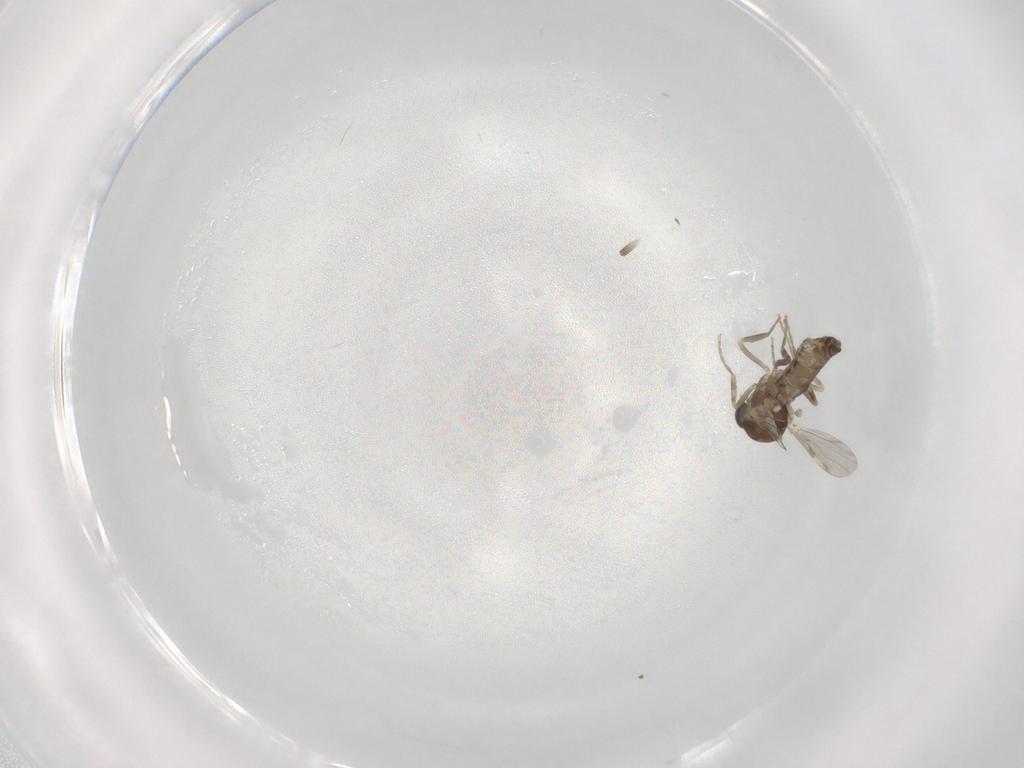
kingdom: Animalia
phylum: Arthropoda
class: Insecta
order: Diptera
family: Ceratopogonidae
